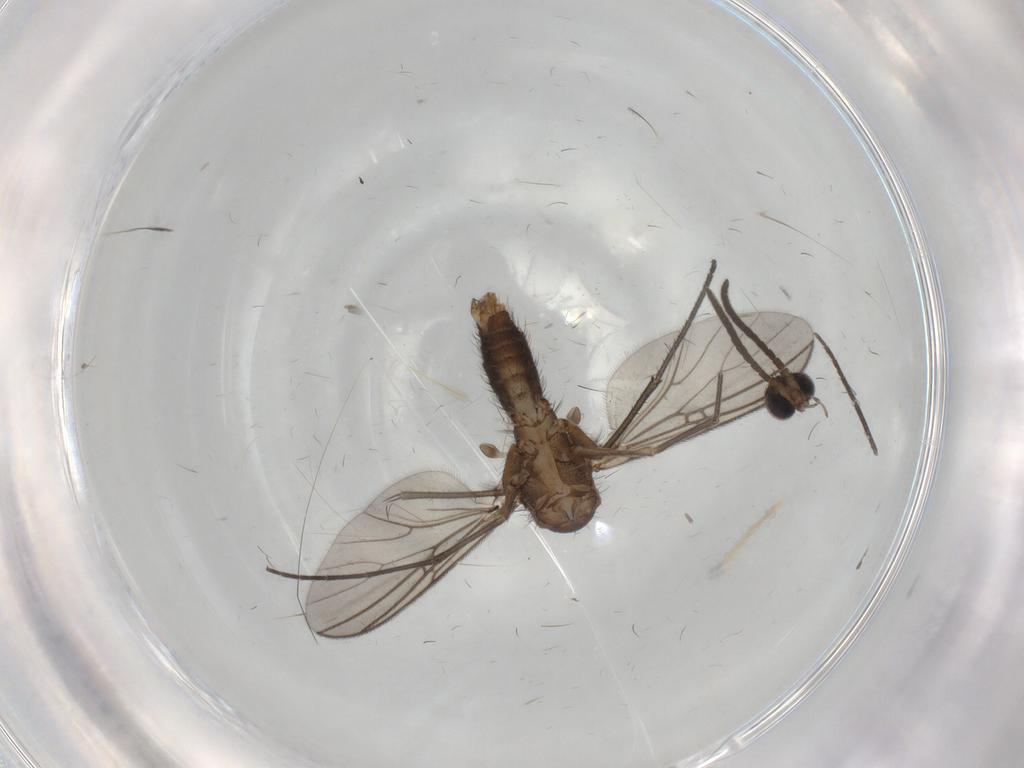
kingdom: Animalia
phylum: Arthropoda
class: Insecta
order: Diptera
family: Mycetophilidae
